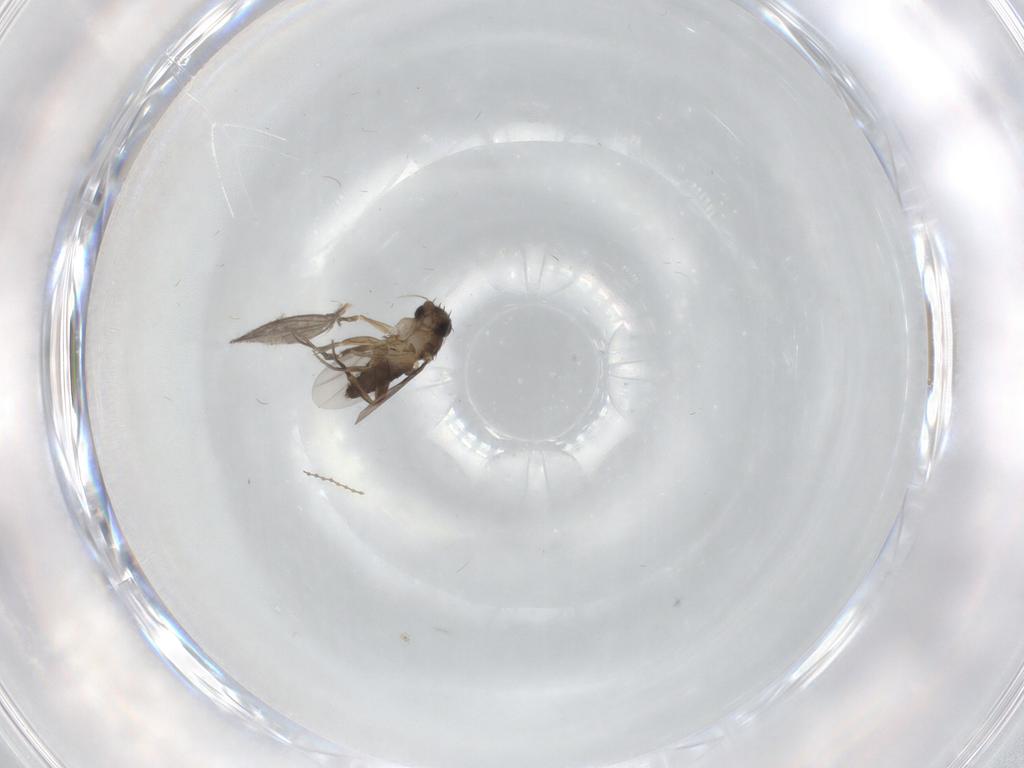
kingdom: Animalia
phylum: Arthropoda
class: Insecta
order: Diptera
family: Cecidomyiidae
